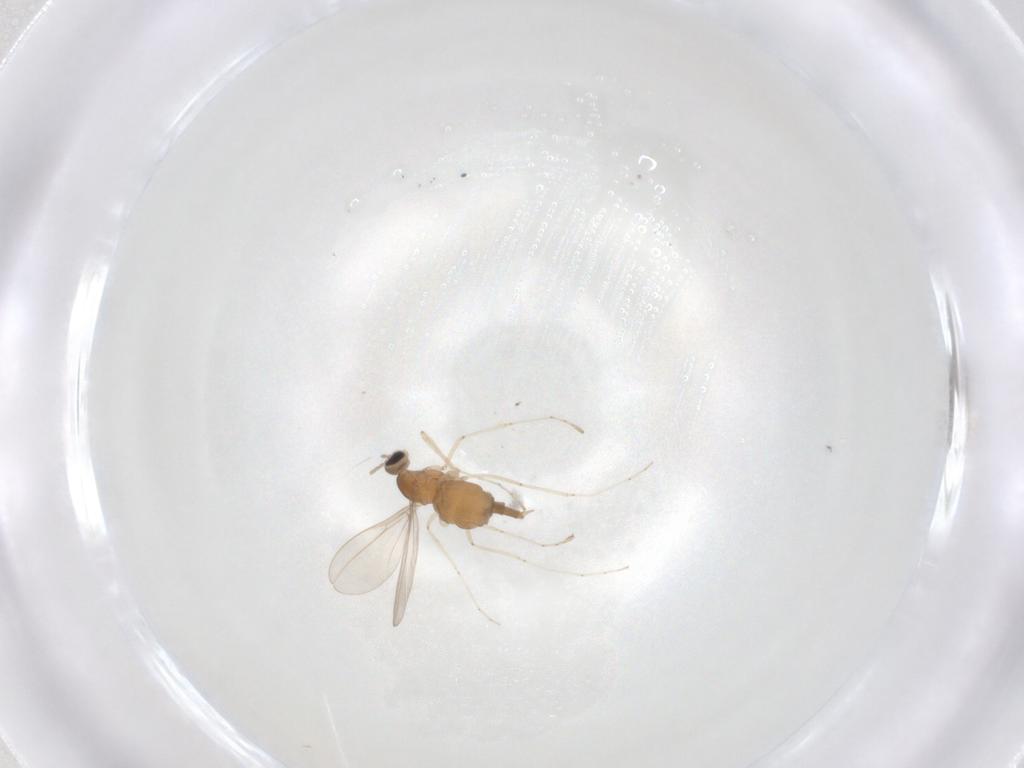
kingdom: Animalia
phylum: Arthropoda
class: Insecta
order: Diptera
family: Cecidomyiidae
